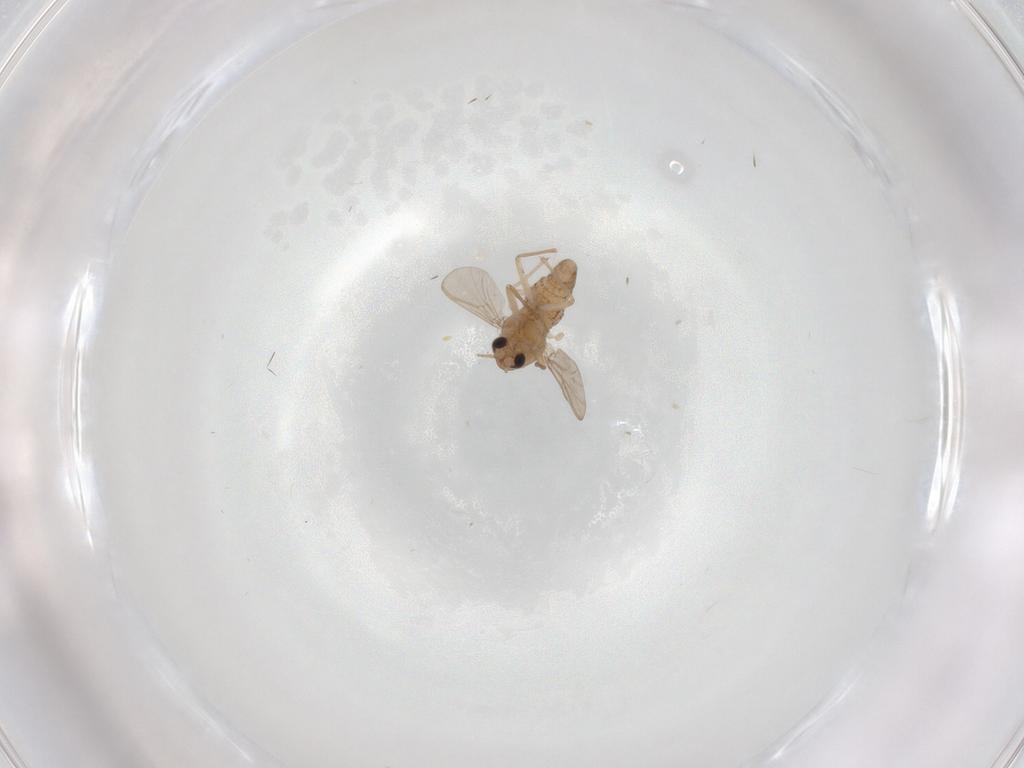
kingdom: Animalia
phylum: Arthropoda
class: Insecta
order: Diptera
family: Chironomidae
